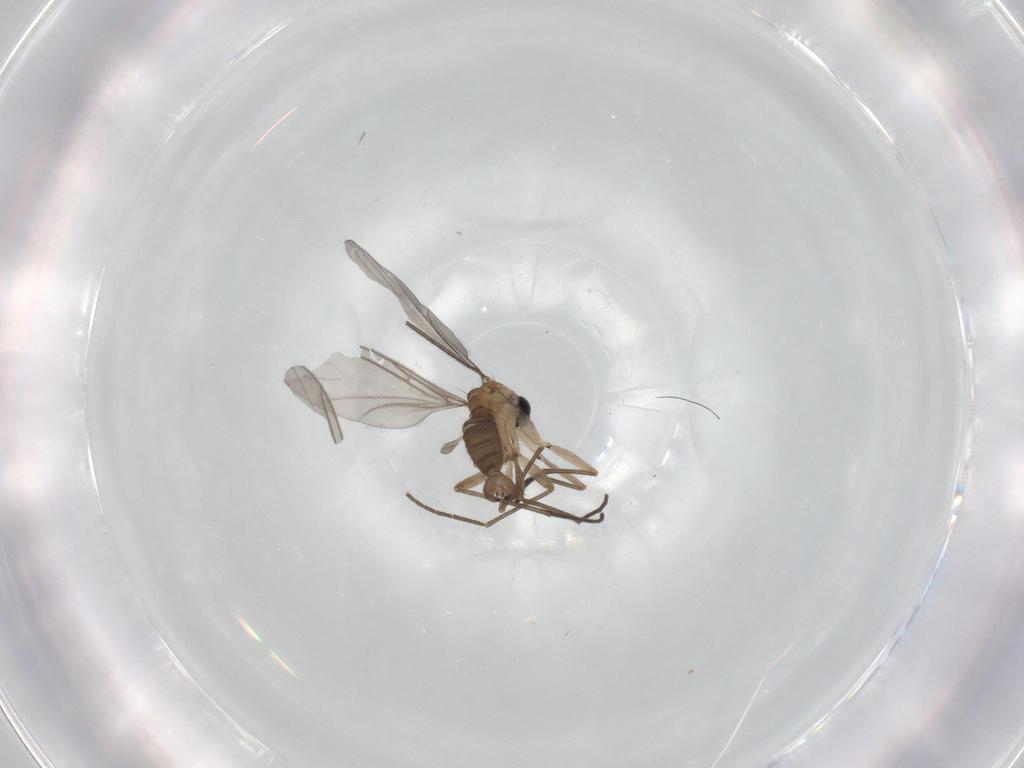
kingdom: Animalia
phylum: Arthropoda
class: Insecta
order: Diptera
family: Sciaridae
